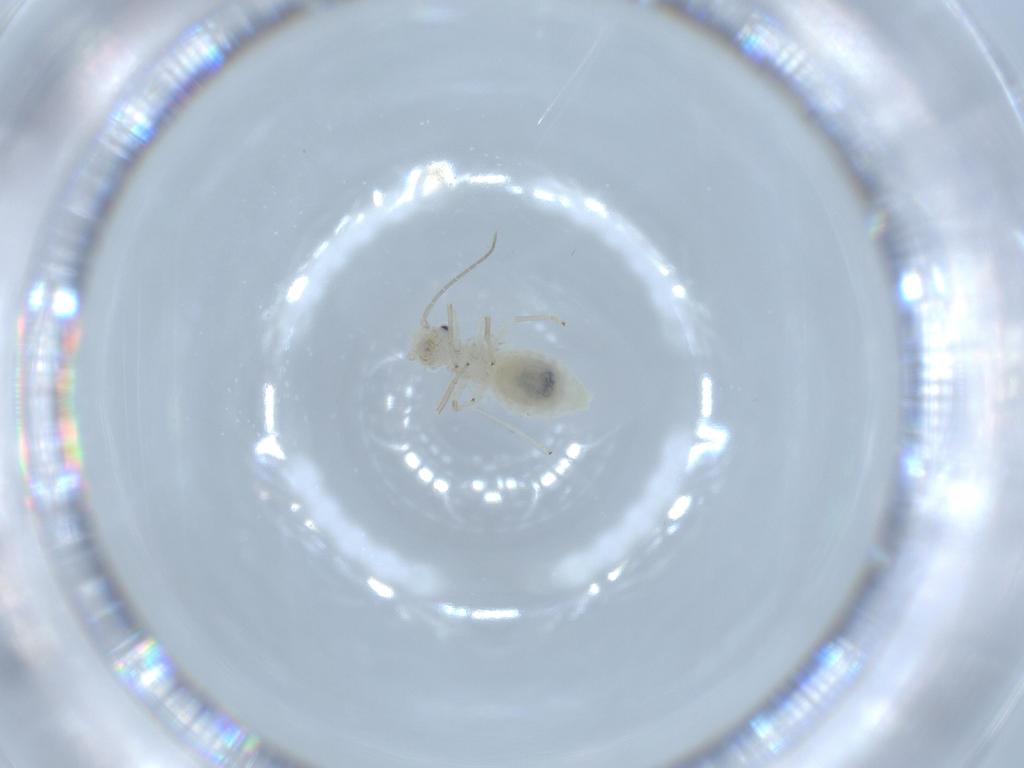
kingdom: Animalia
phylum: Arthropoda
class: Insecta
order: Psocodea
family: Caeciliusidae
